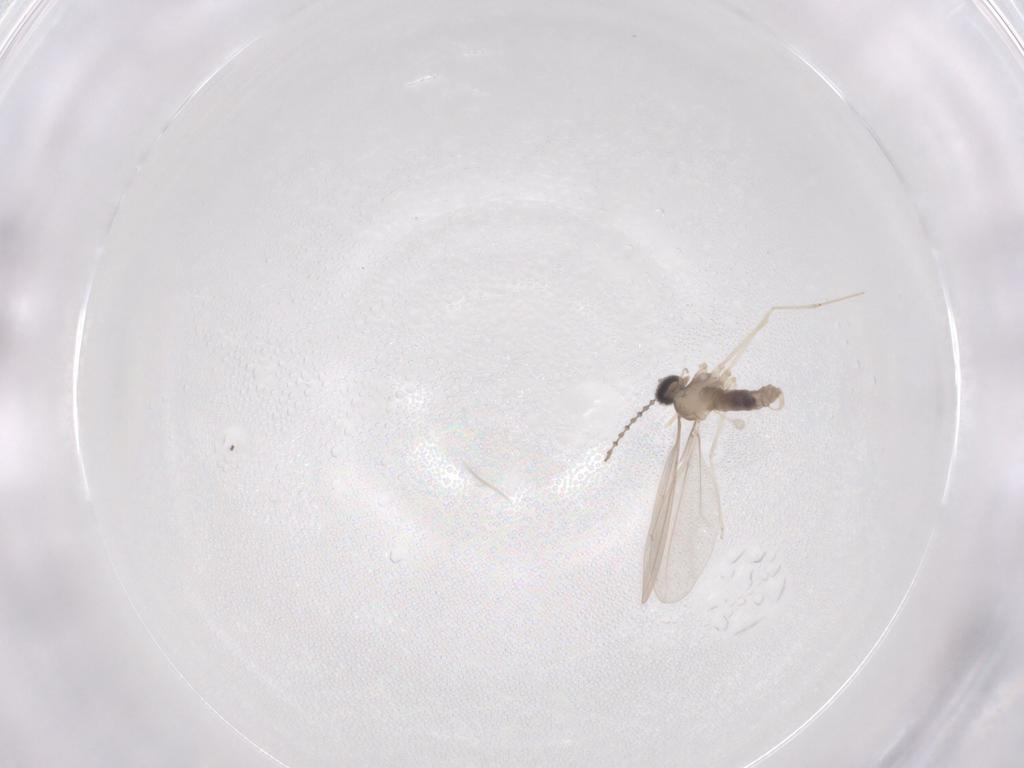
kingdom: Animalia
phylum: Arthropoda
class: Insecta
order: Diptera
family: Cecidomyiidae
